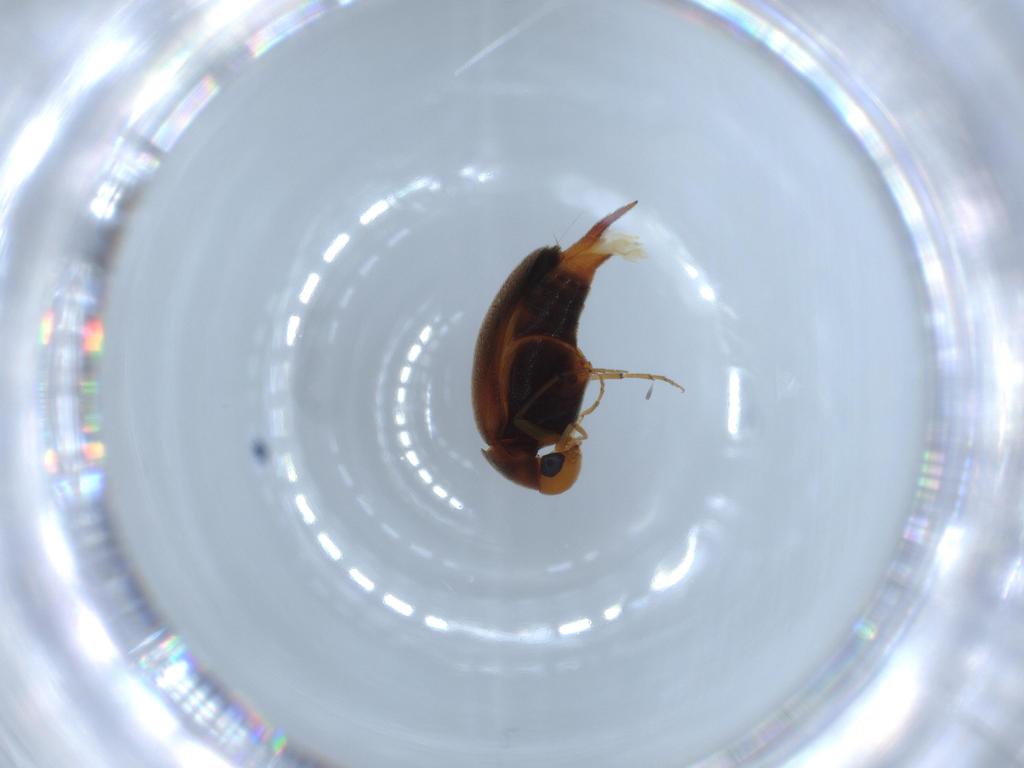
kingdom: Animalia
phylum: Arthropoda
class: Insecta
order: Coleoptera
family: Mordellidae
